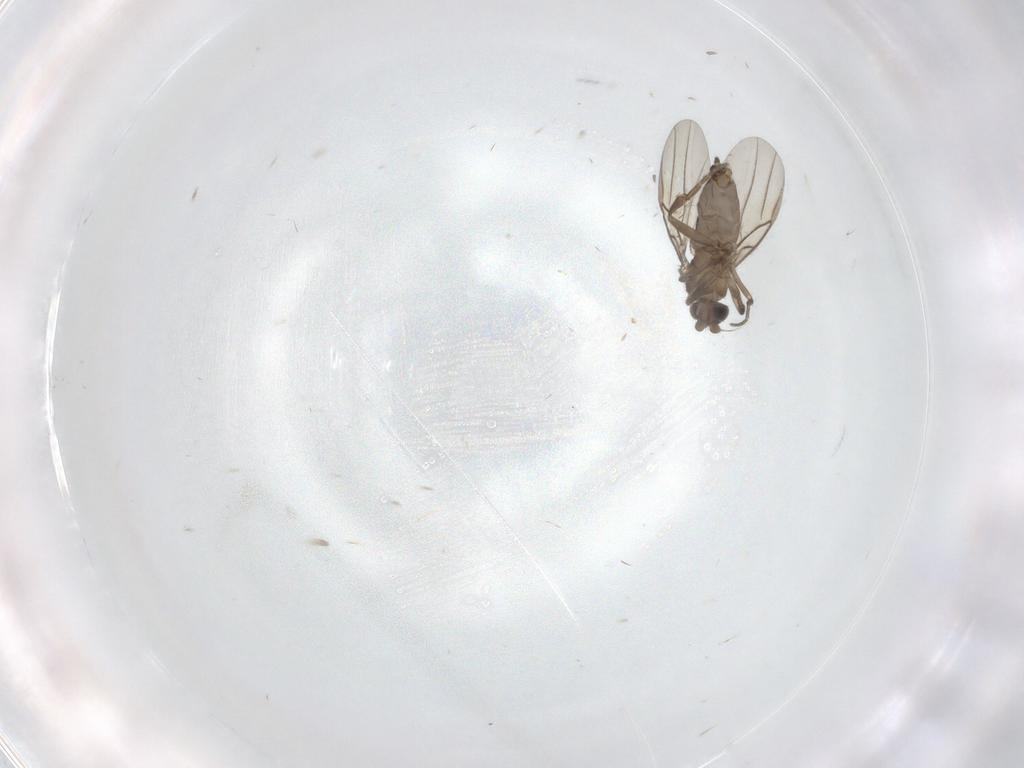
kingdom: Animalia
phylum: Arthropoda
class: Insecta
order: Diptera
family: Phoridae
